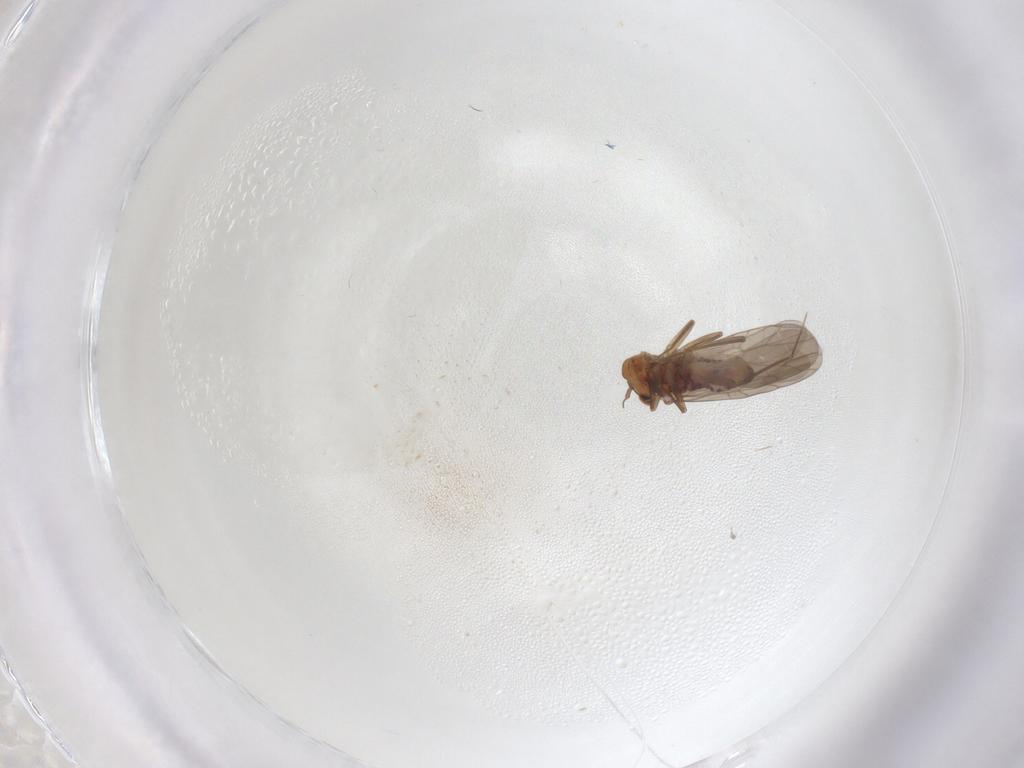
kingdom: Animalia
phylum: Arthropoda
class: Insecta
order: Psocodea
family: Lepidopsocidae
